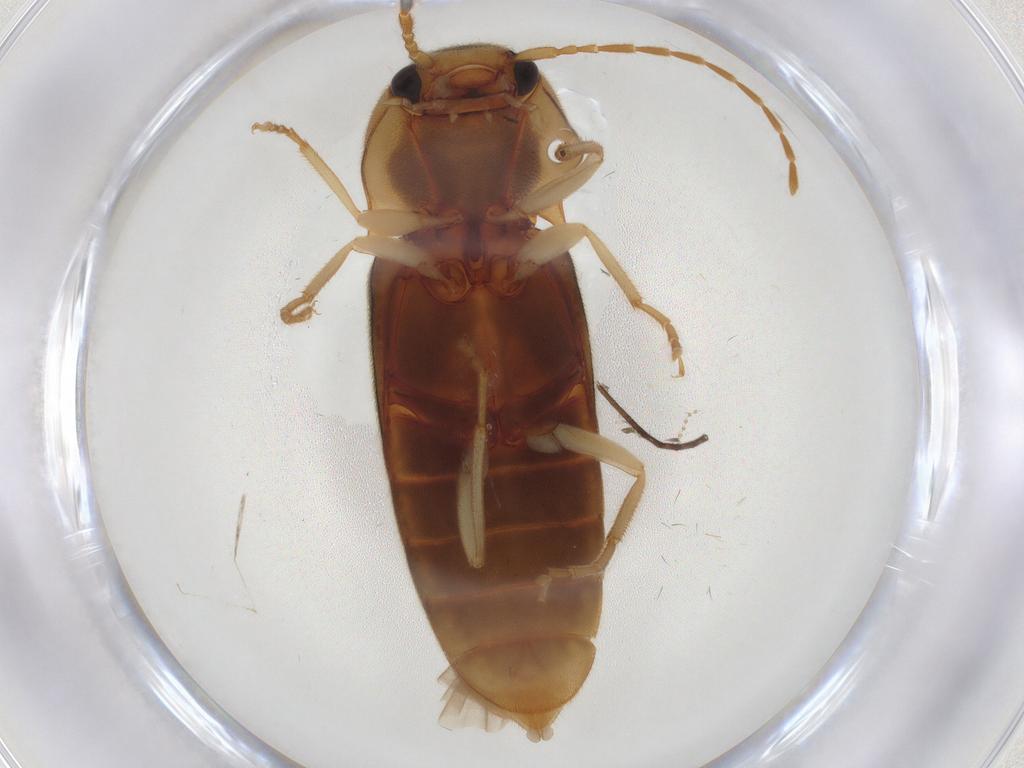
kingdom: Animalia
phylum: Arthropoda
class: Insecta
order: Coleoptera
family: Elateridae
